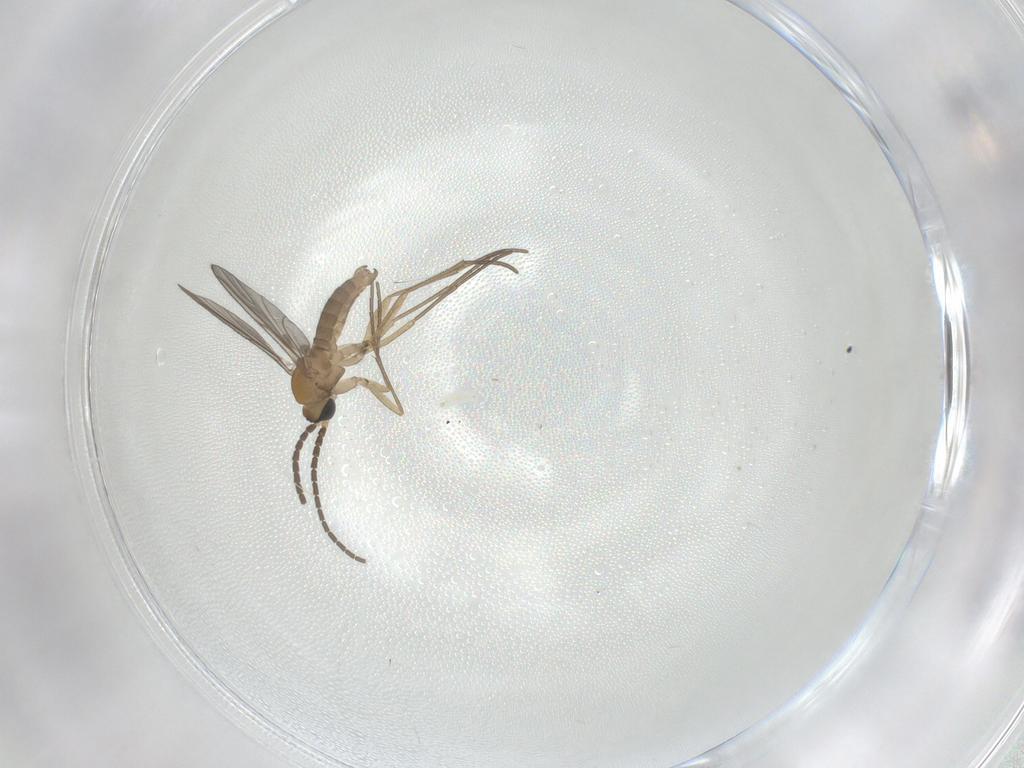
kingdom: Animalia
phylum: Arthropoda
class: Insecta
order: Diptera
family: Sciaridae
